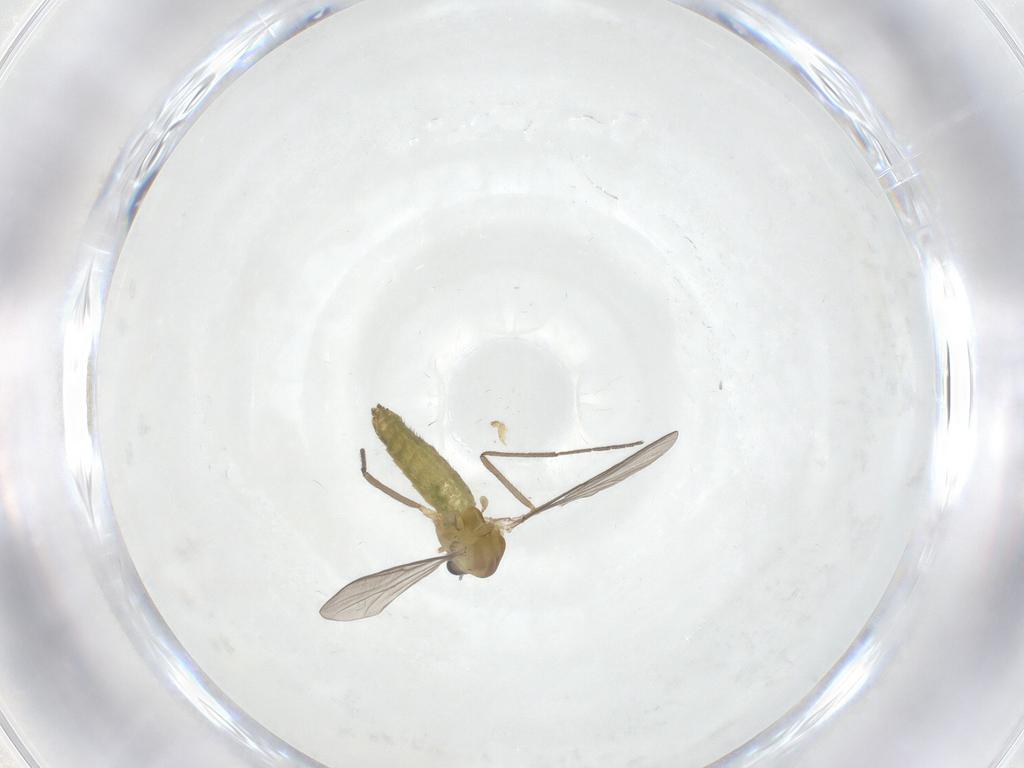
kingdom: Animalia
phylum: Arthropoda
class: Insecta
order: Diptera
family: Chironomidae
